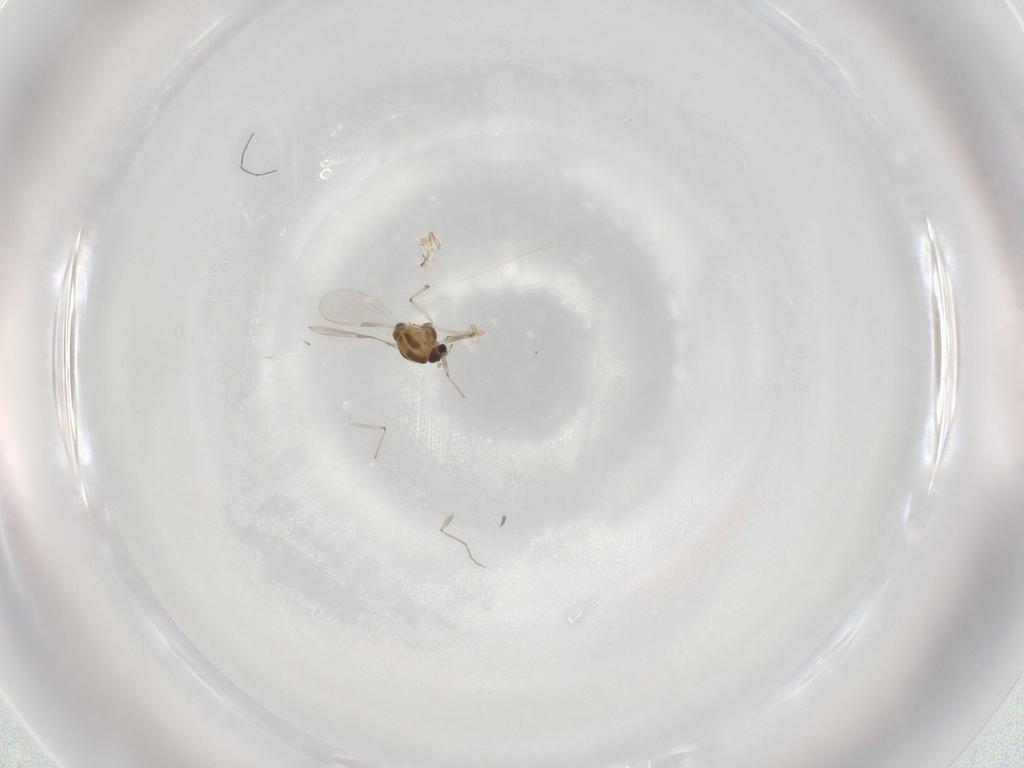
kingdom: Animalia
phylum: Arthropoda
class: Insecta
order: Diptera
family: Chironomidae
